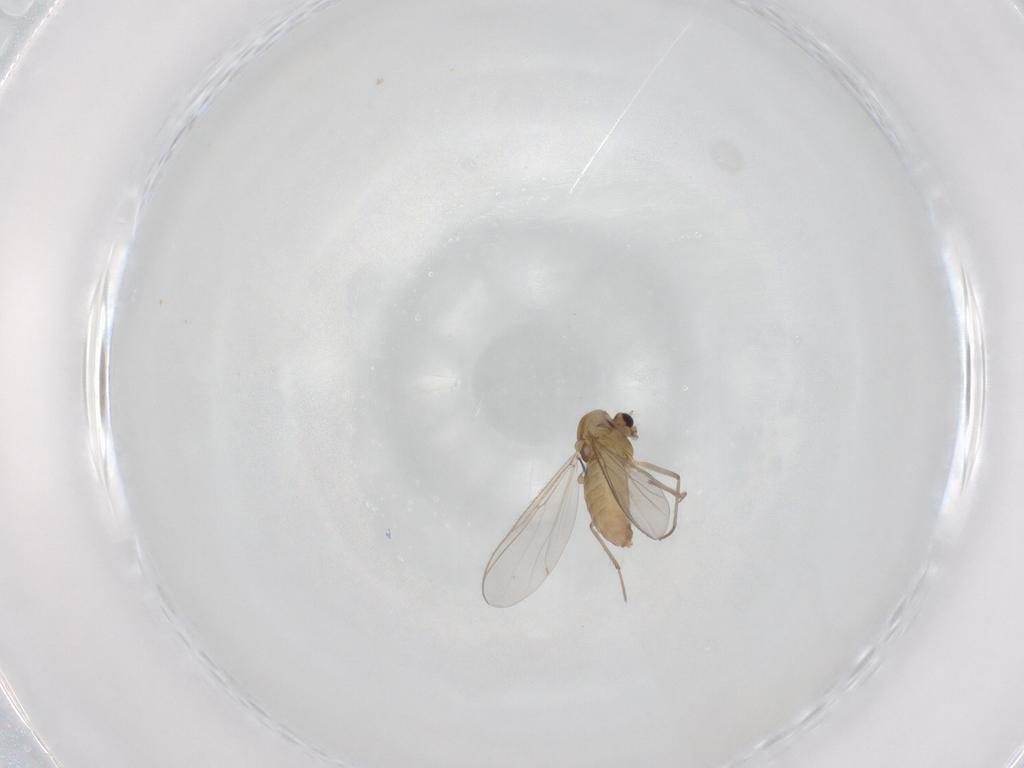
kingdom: Animalia
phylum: Arthropoda
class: Insecta
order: Diptera
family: Chironomidae
